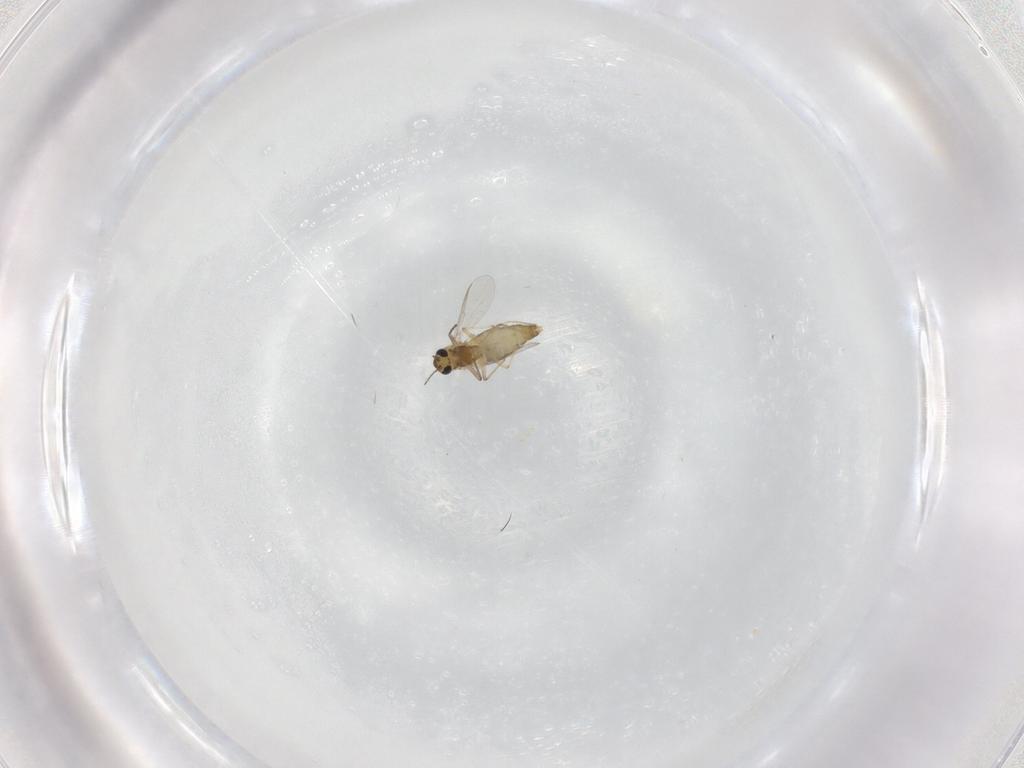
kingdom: Animalia
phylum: Arthropoda
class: Insecta
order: Diptera
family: Chironomidae
